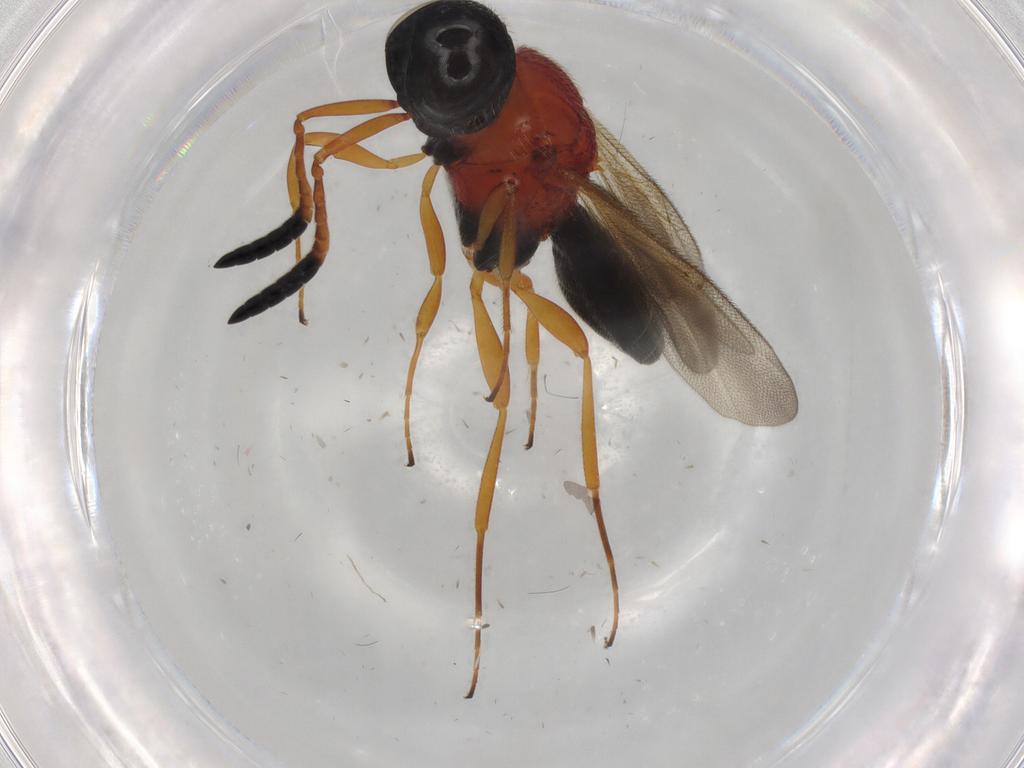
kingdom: Animalia
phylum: Arthropoda
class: Insecta
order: Hymenoptera
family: Scelionidae
